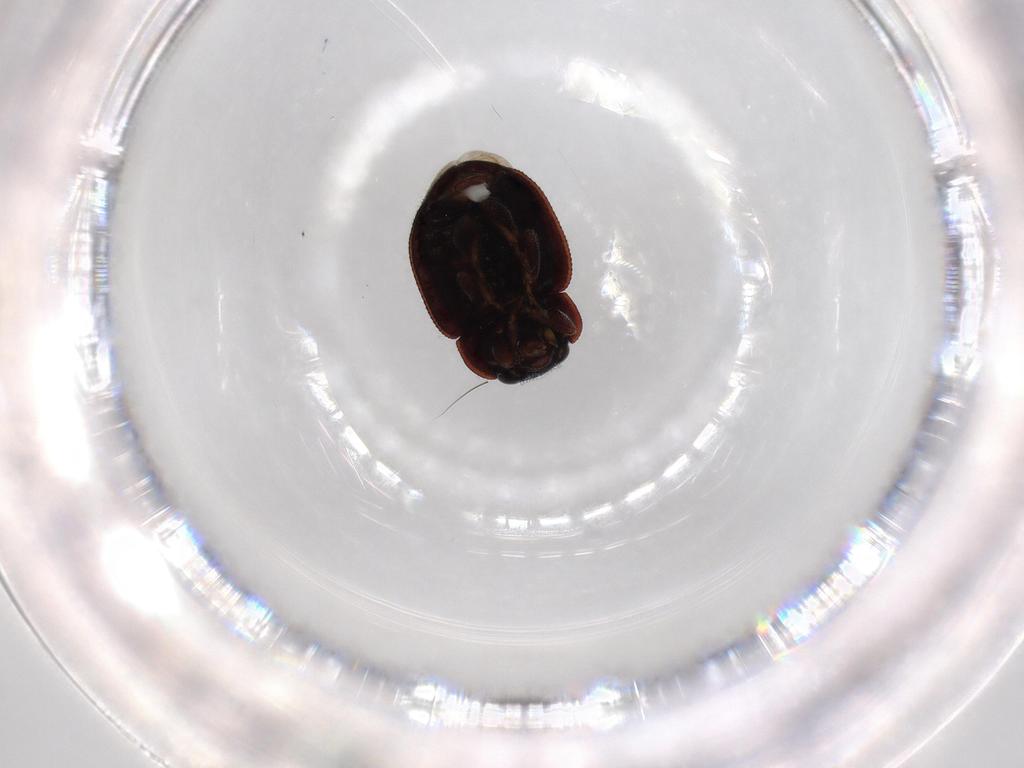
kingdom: Animalia
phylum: Arthropoda
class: Insecta
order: Coleoptera
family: Coccinellidae
